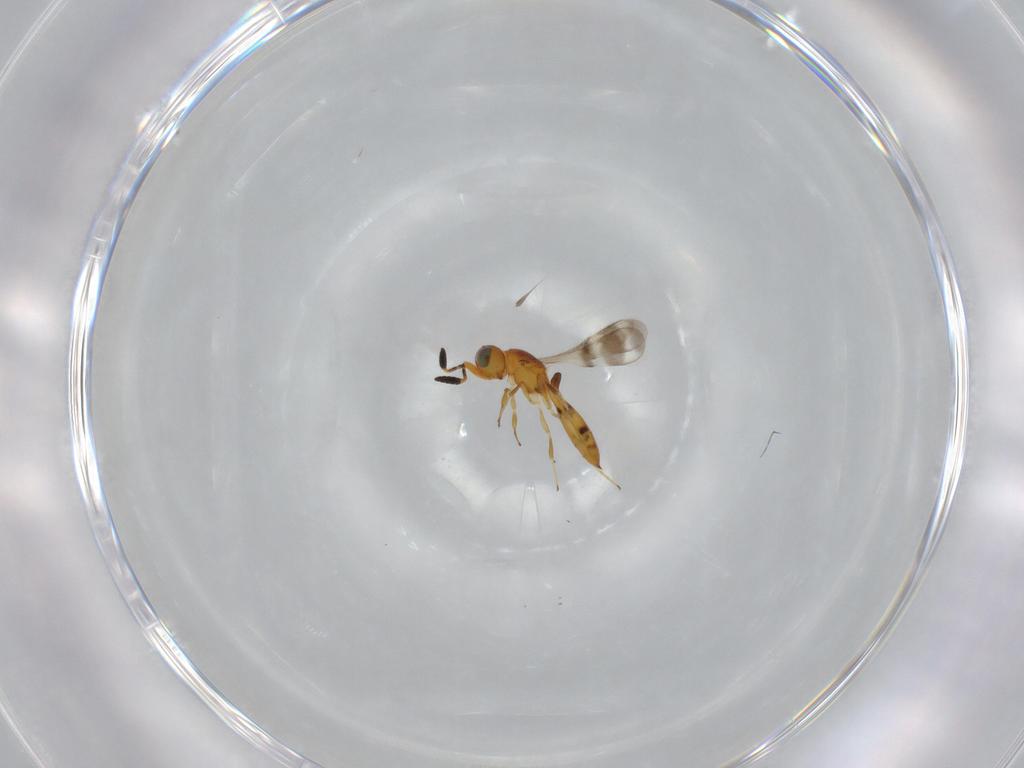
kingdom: Animalia
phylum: Arthropoda
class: Insecta
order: Hymenoptera
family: Scelionidae
